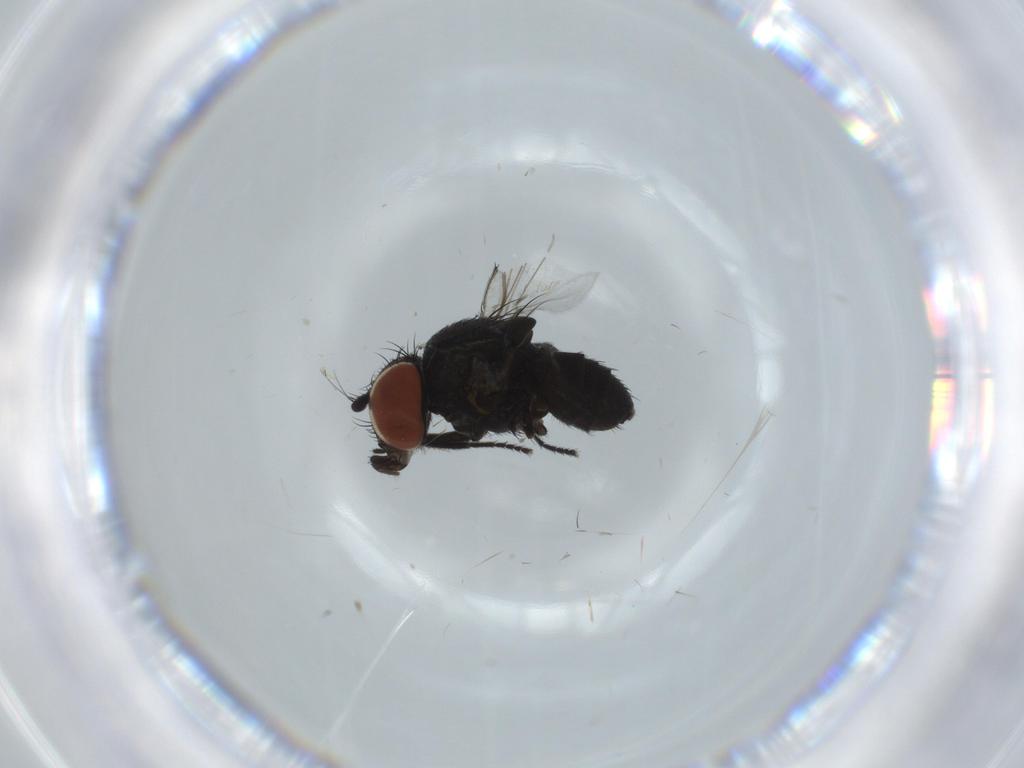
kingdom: Animalia
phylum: Arthropoda
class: Insecta
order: Diptera
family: Milichiidae
